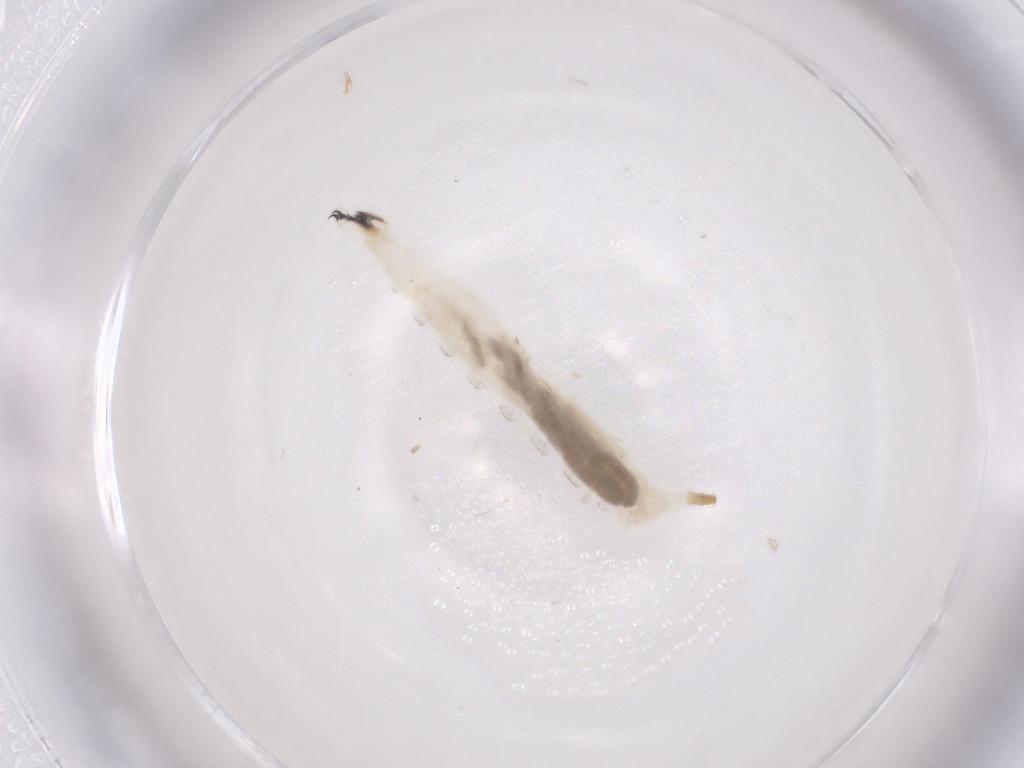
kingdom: Animalia
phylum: Arthropoda
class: Insecta
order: Diptera
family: Drosophilidae
